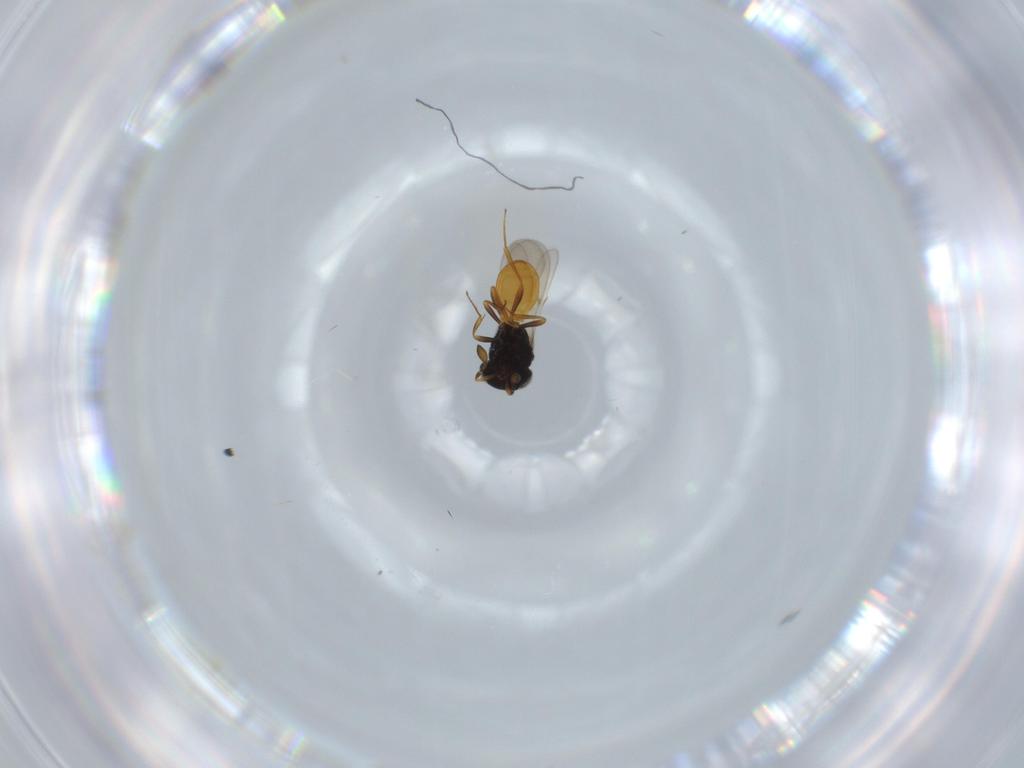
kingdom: Animalia
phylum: Arthropoda
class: Insecta
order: Hymenoptera
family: Scelionidae
